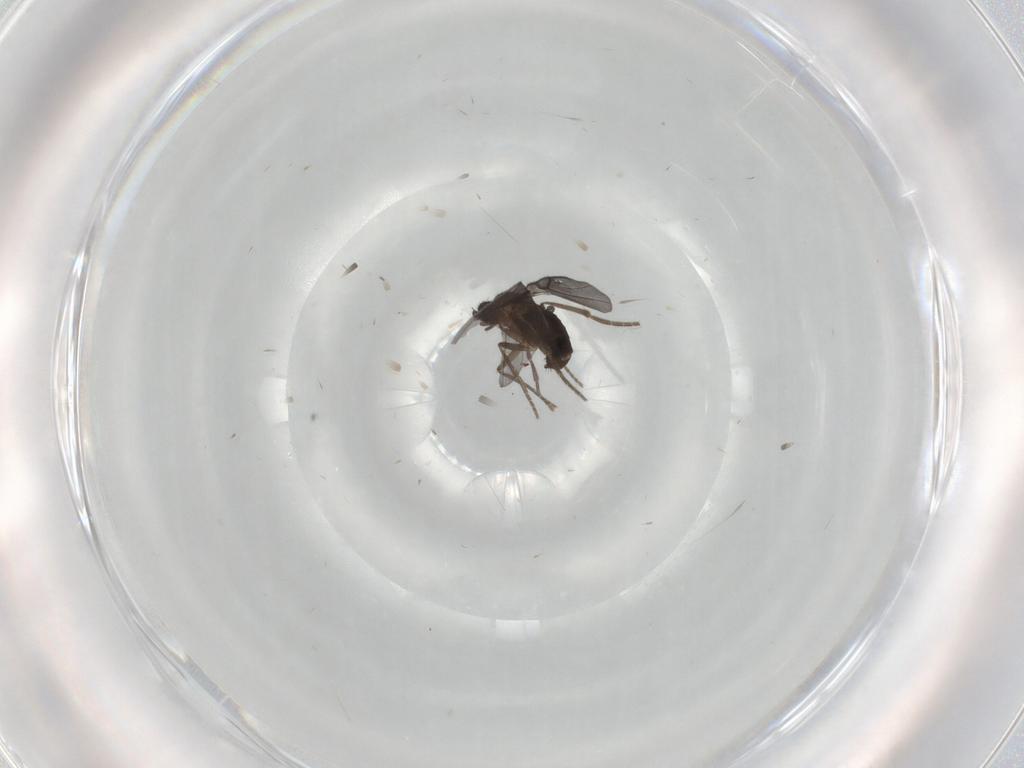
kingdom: Animalia
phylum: Arthropoda
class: Insecta
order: Diptera
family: Phoridae
